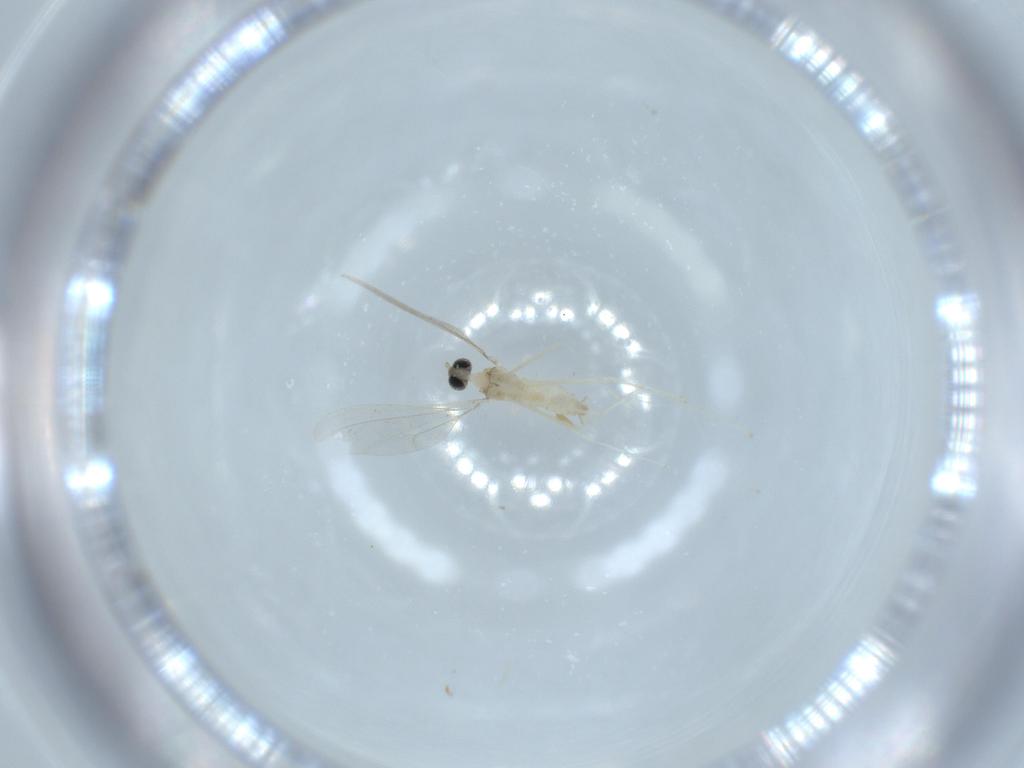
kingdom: Animalia
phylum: Arthropoda
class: Insecta
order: Diptera
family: Cecidomyiidae
